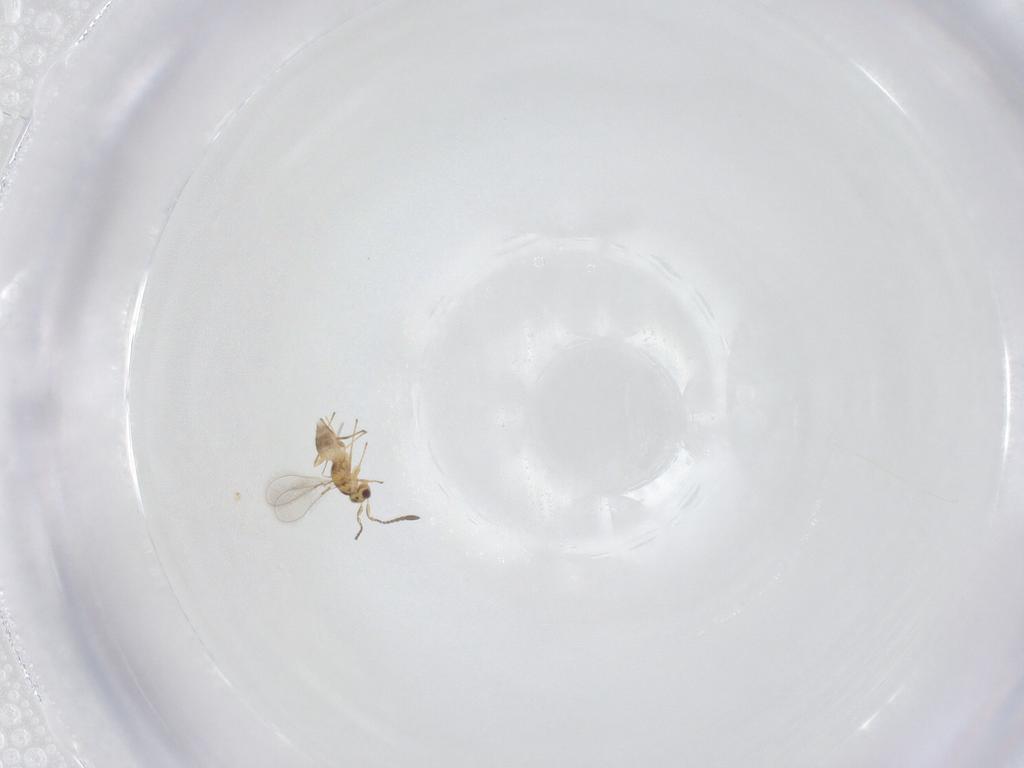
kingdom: Animalia
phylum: Arthropoda
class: Insecta
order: Hymenoptera
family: Mymaridae
